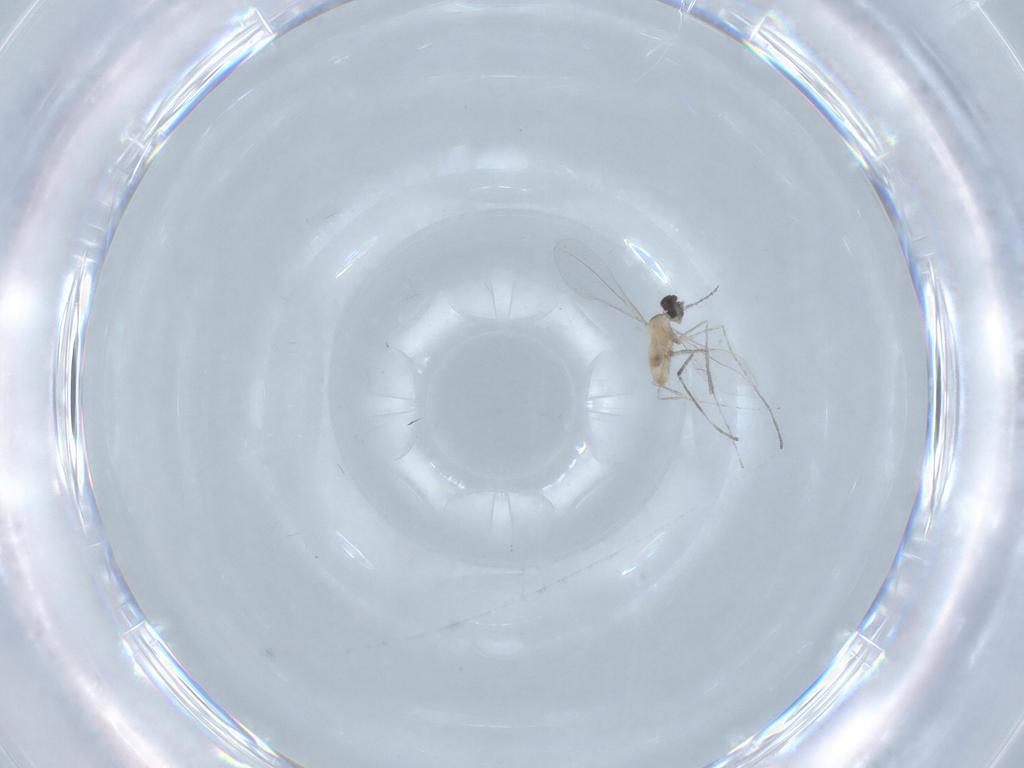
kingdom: Animalia
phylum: Arthropoda
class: Insecta
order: Diptera
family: Cecidomyiidae
